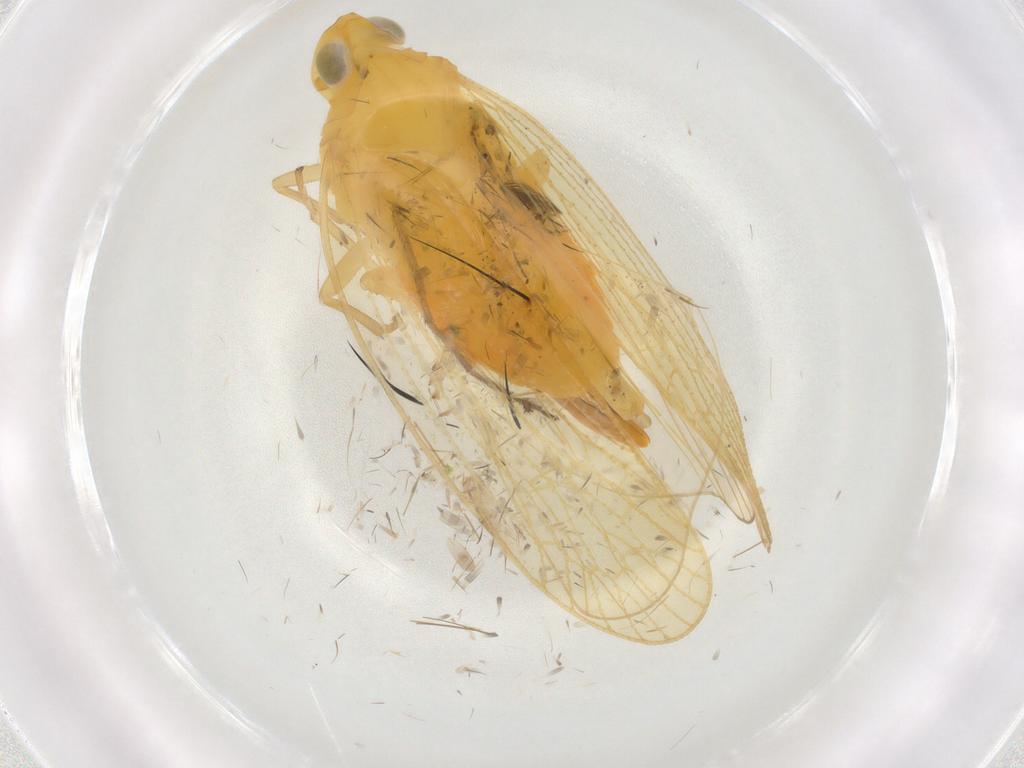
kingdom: Animalia
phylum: Arthropoda
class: Insecta
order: Hemiptera
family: Cixiidae
